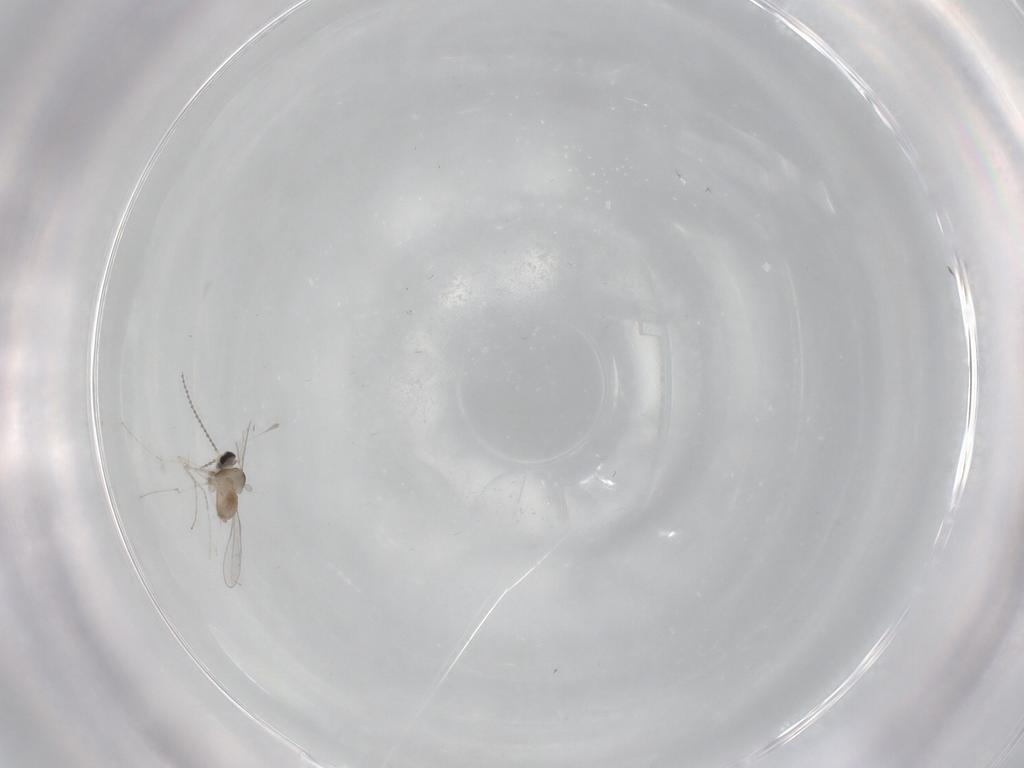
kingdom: Animalia
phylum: Arthropoda
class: Insecta
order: Diptera
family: Cecidomyiidae
